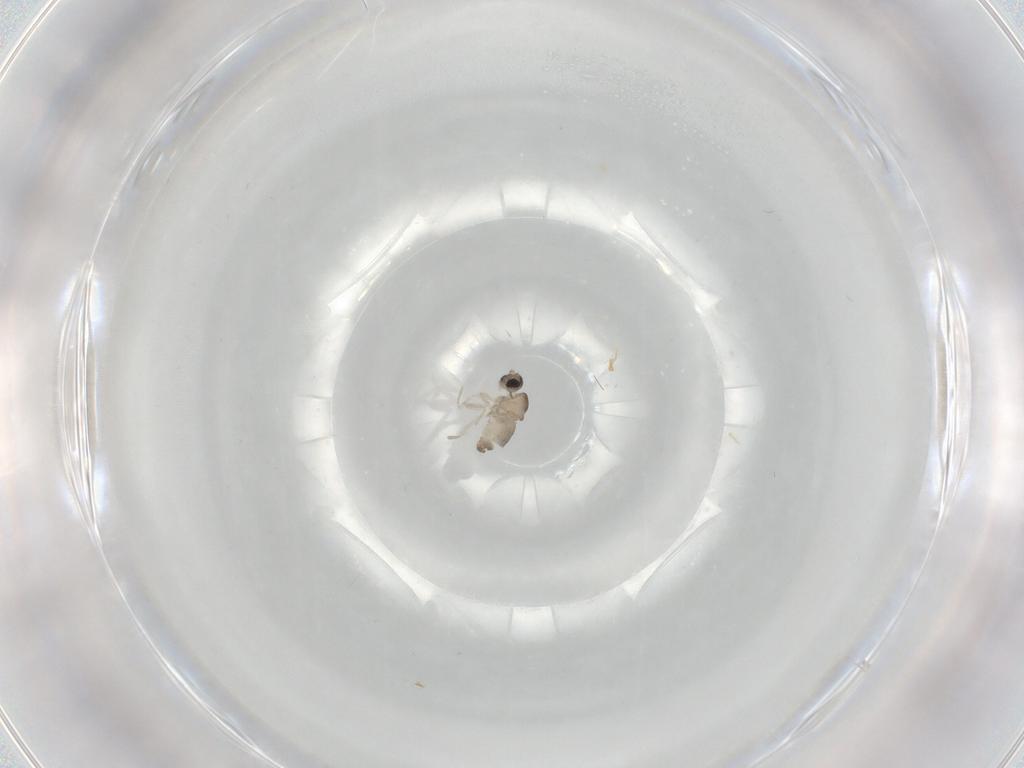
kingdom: Animalia
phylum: Arthropoda
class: Insecta
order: Diptera
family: Cecidomyiidae
